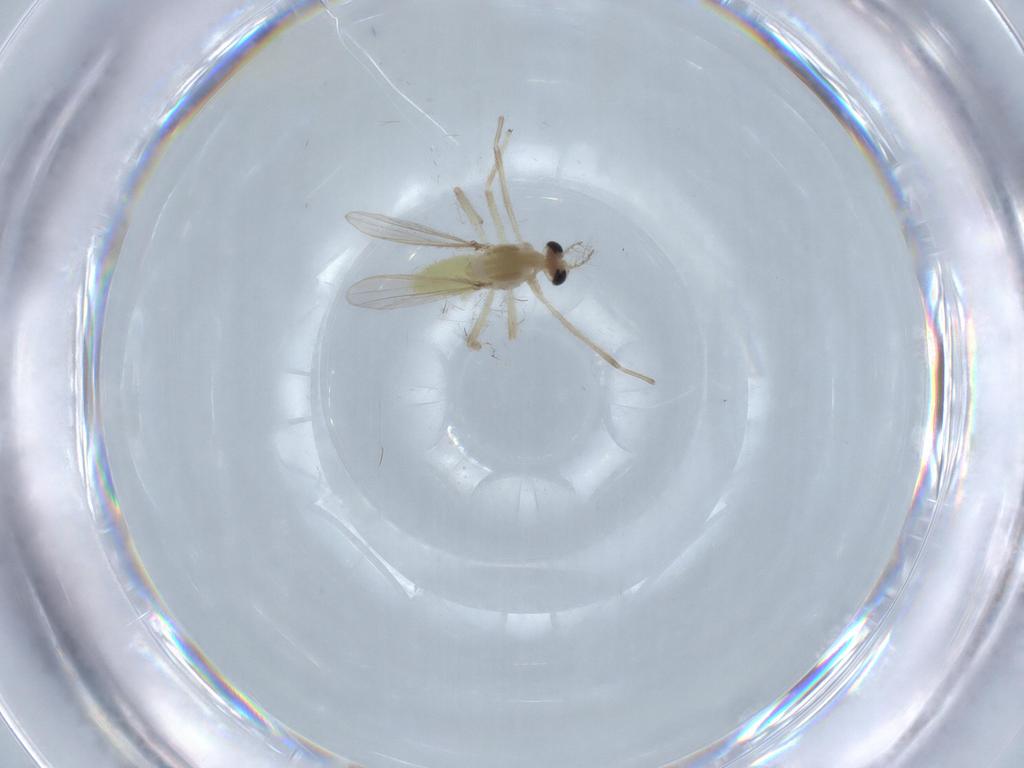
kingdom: Animalia
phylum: Arthropoda
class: Insecta
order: Diptera
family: Chironomidae
